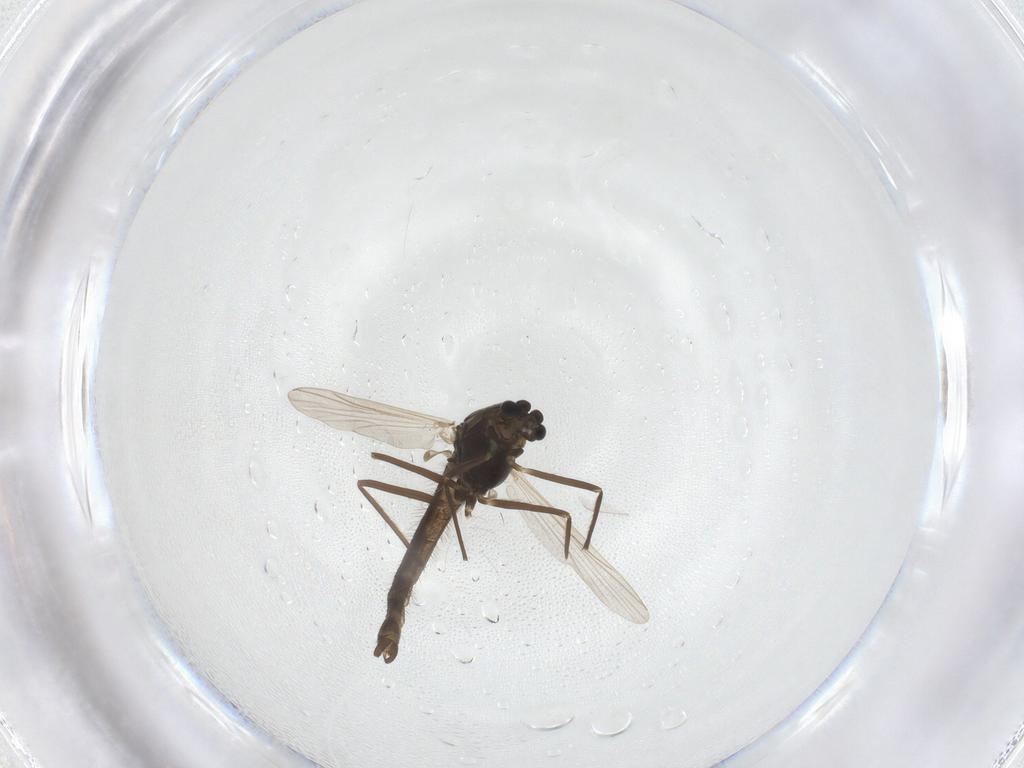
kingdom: Animalia
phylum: Arthropoda
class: Insecta
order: Diptera
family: Chironomidae
